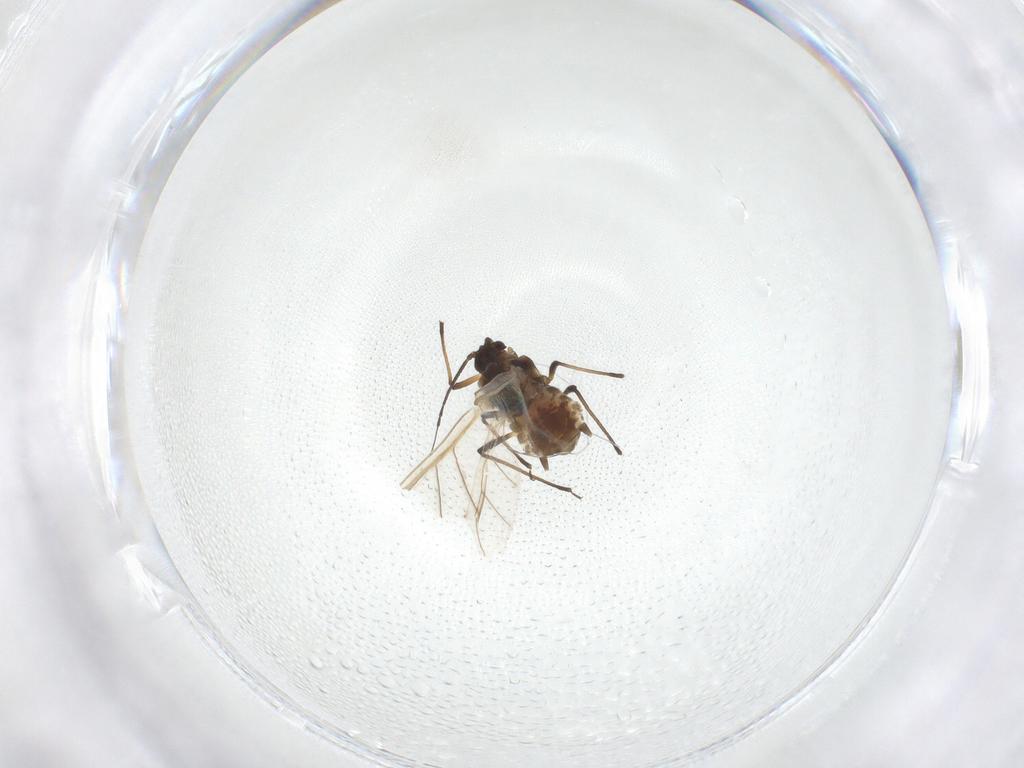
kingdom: Animalia
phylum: Arthropoda
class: Insecta
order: Hemiptera
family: Aphididae
